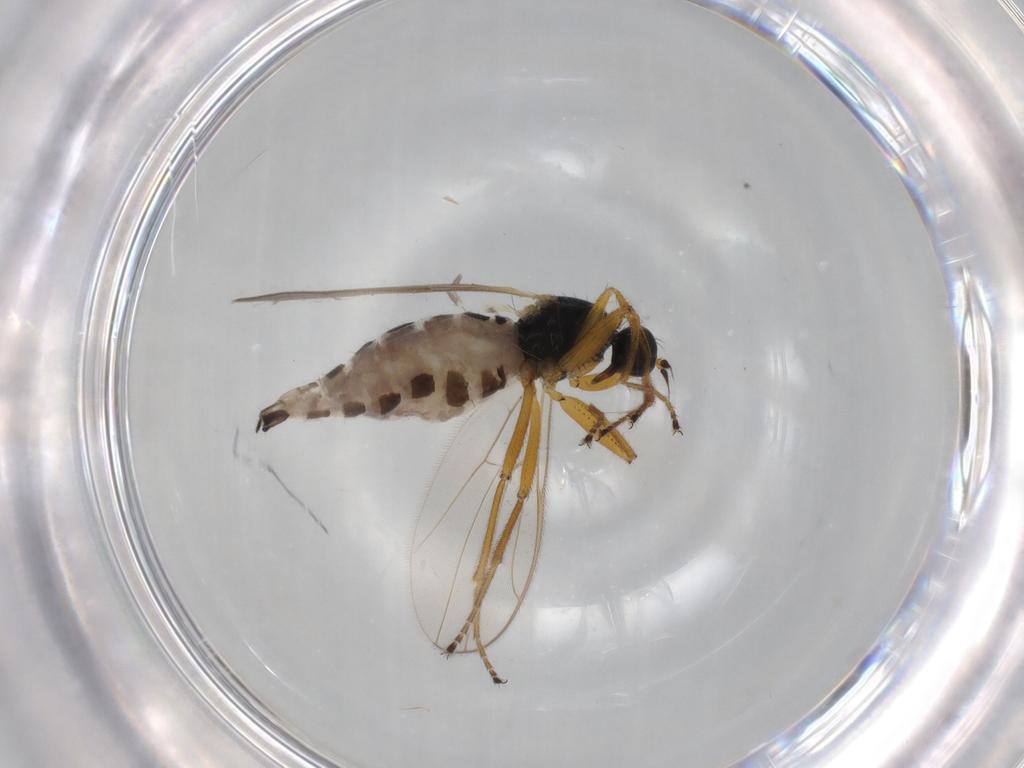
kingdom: Animalia
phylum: Arthropoda
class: Insecta
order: Diptera
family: Hybotidae
